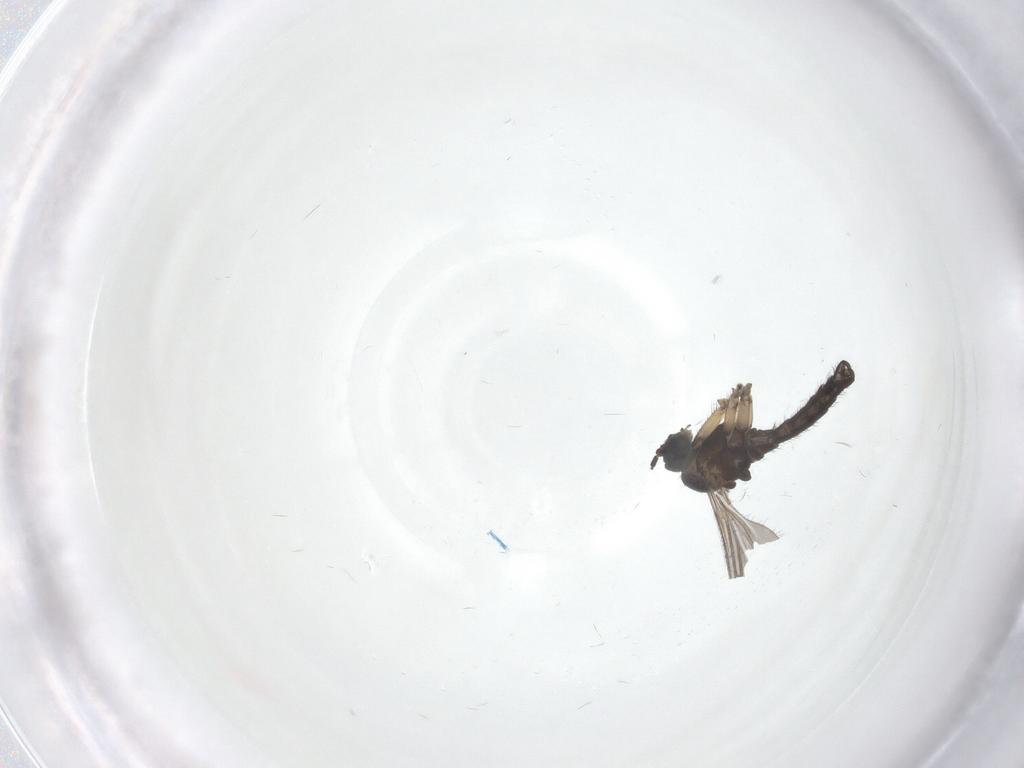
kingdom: Animalia
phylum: Arthropoda
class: Insecta
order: Diptera
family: Sciaridae
